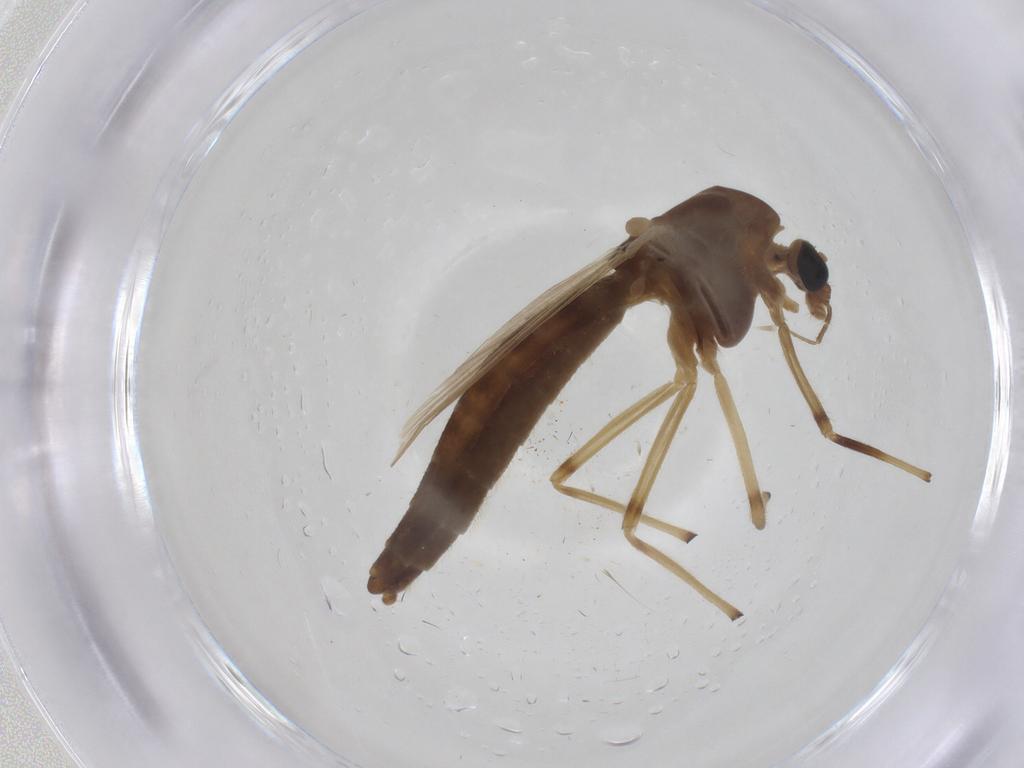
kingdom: Animalia
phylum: Arthropoda
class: Insecta
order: Diptera
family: Chironomidae
